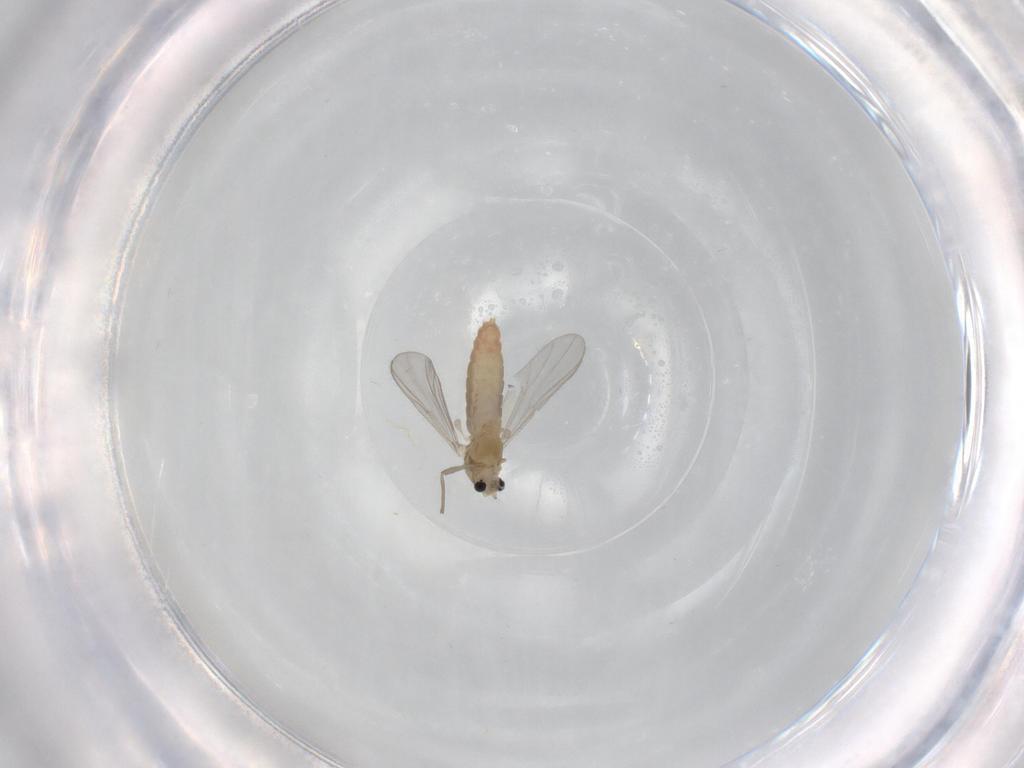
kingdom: Animalia
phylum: Arthropoda
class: Insecta
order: Diptera
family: Chironomidae
